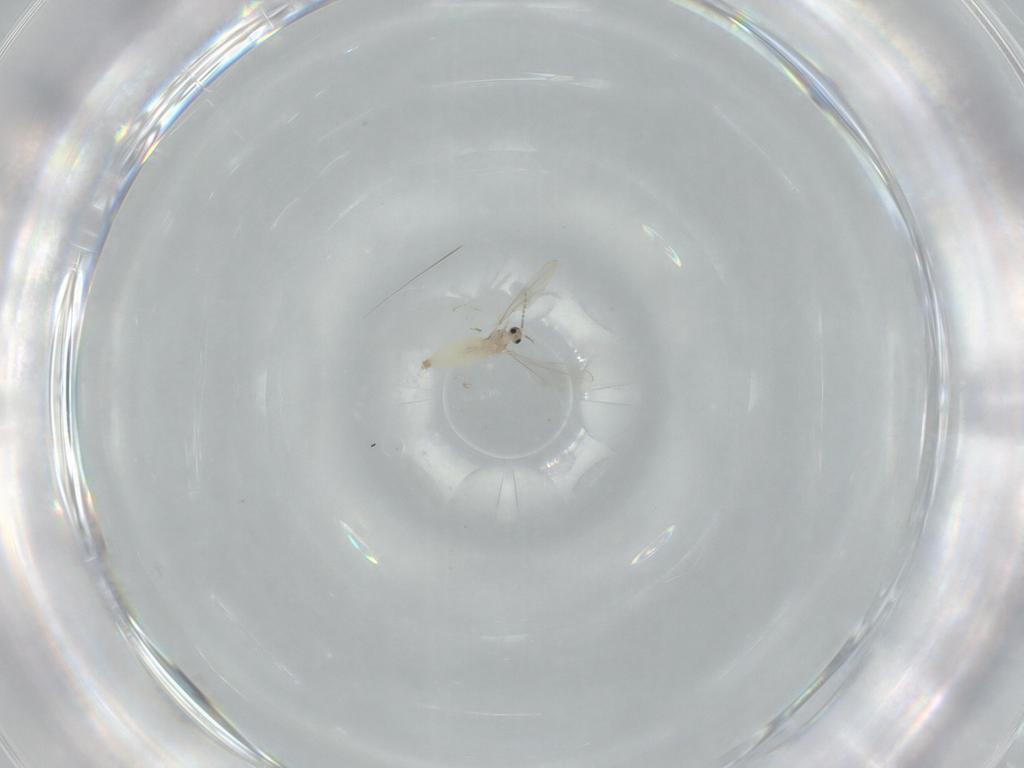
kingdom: Animalia
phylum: Arthropoda
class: Insecta
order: Diptera
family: Cecidomyiidae
